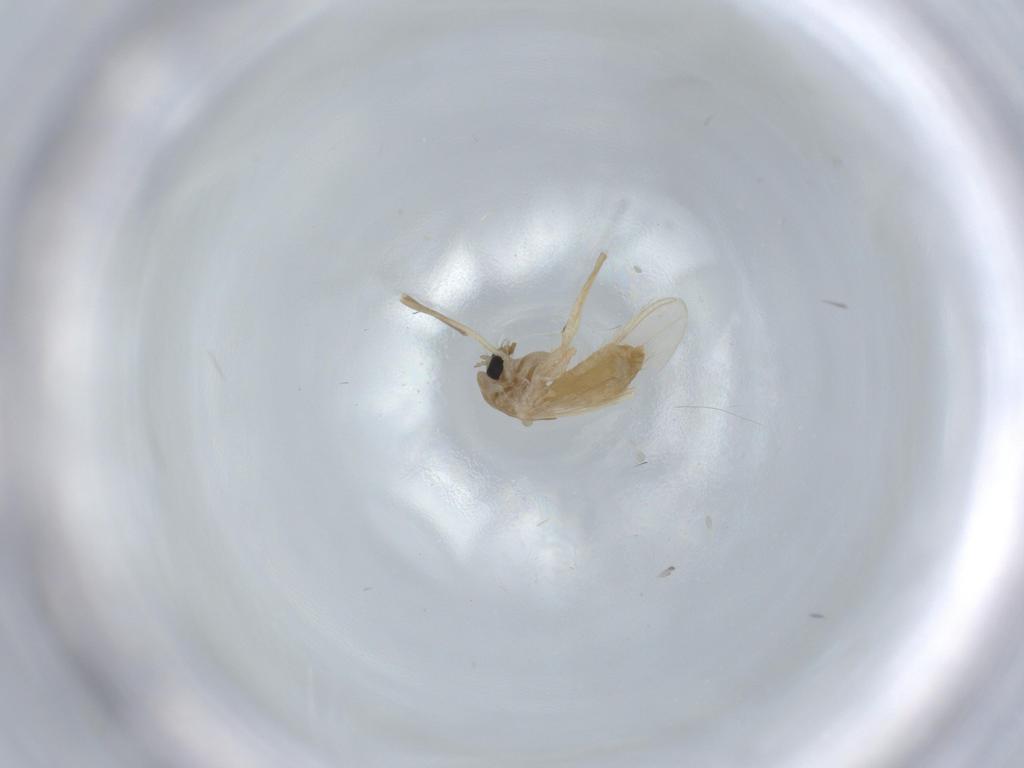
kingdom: Animalia
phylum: Arthropoda
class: Insecta
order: Diptera
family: Chironomidae
